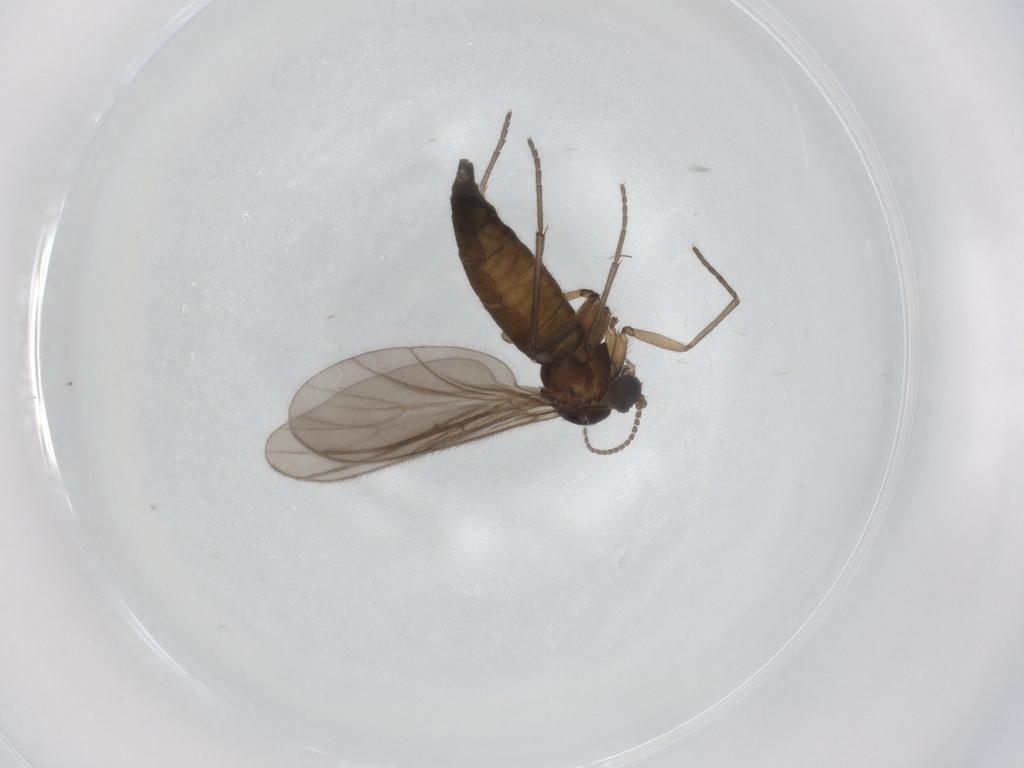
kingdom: Animalia
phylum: Arthropoda
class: Insecta
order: Diptera
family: Sciaridae
